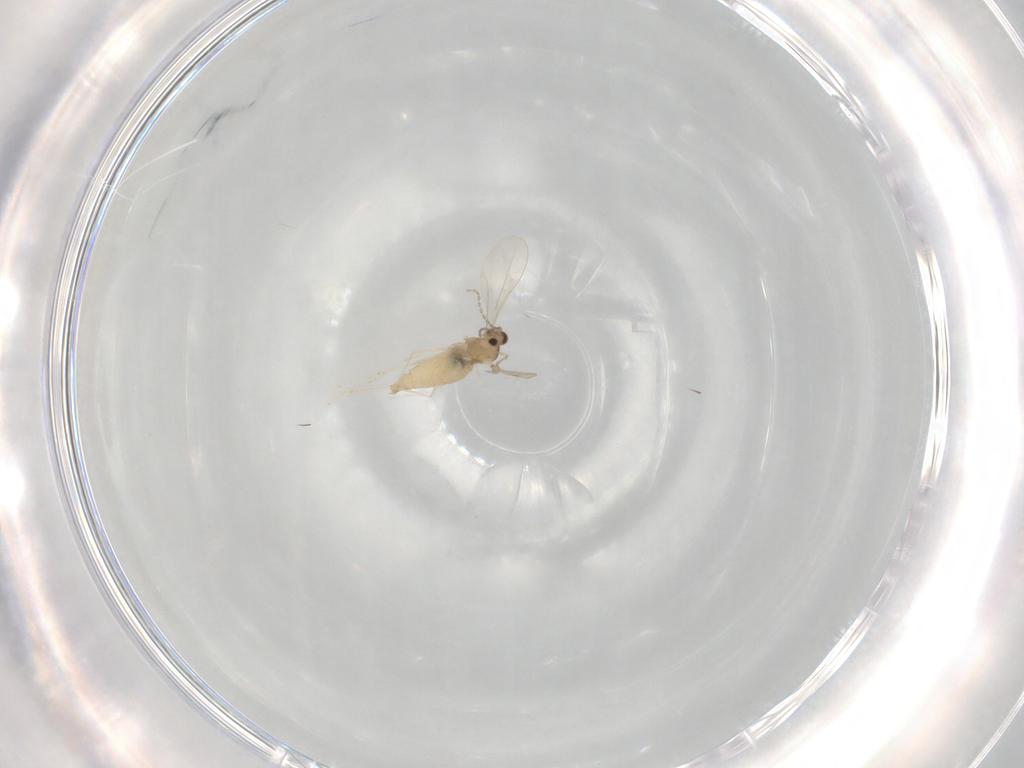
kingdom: Animalia
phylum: Arthropoda
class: Insecta
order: Diptera
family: Cecidomyiidae
